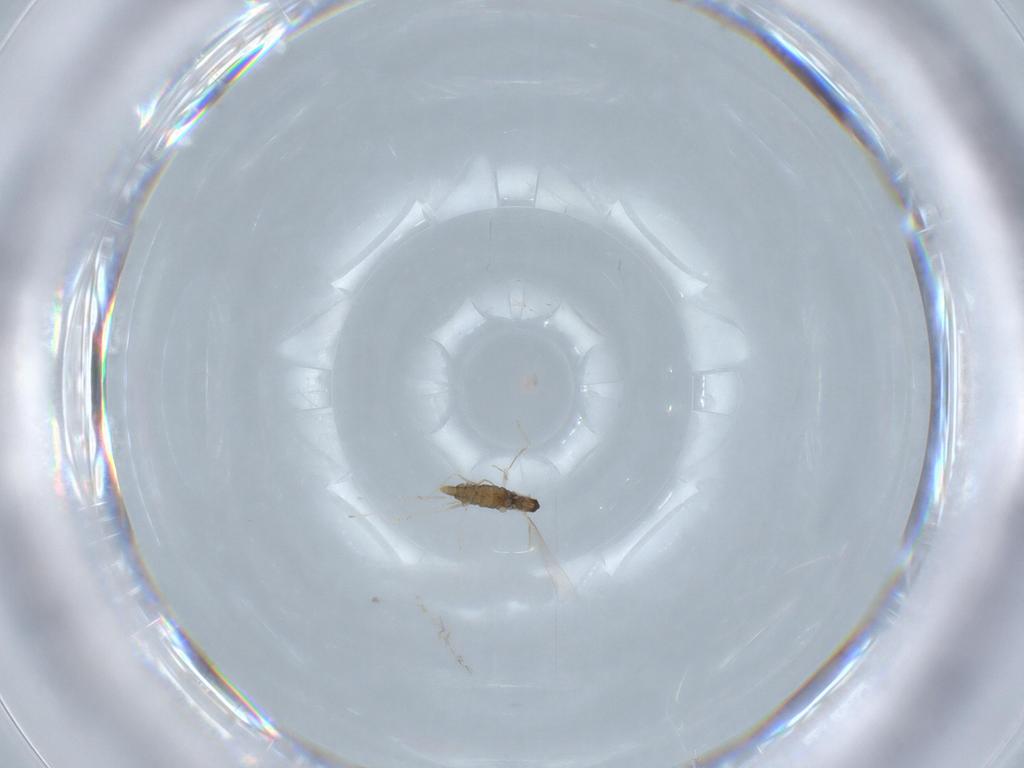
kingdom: Animalia
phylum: Arthropoda
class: Insecta
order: Diptera
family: Cecidomyiidae
